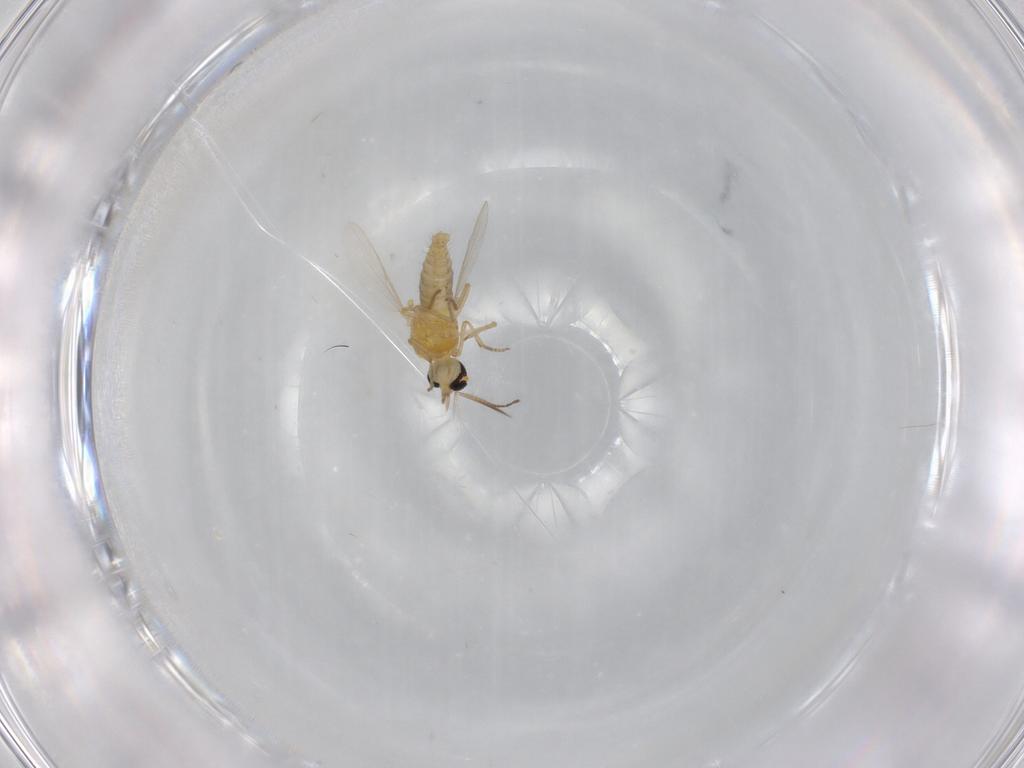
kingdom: Animalia
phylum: Arthropoda
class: Insecta
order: Diptera
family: Ceratopogonidae
